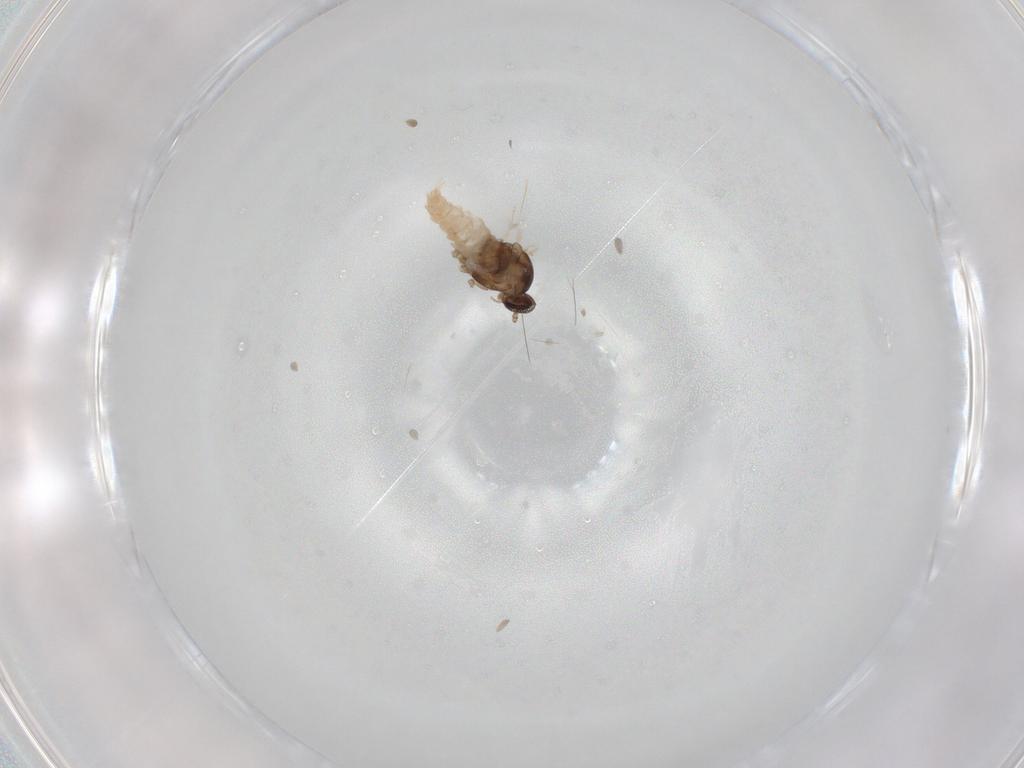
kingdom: Animalia
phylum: Arthropoda
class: Insecta
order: Diptera
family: Cecidomyiidae
